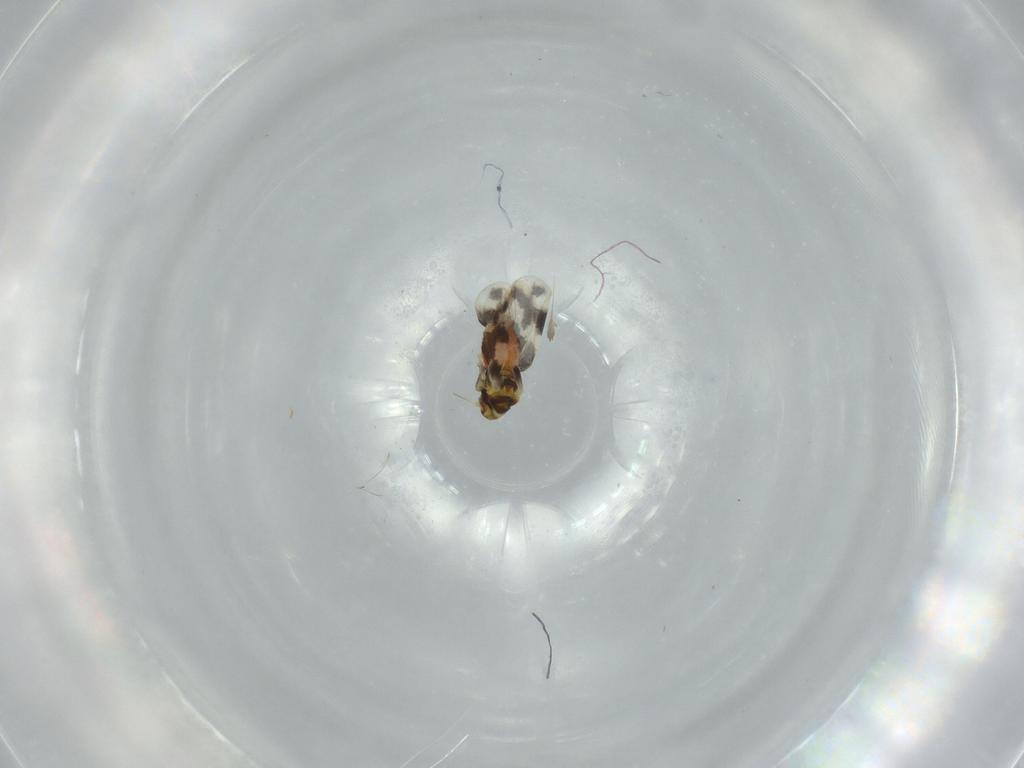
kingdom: Animalia
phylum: Arthropoda
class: Insecta
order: Hemiptera
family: Aleyrodidae
